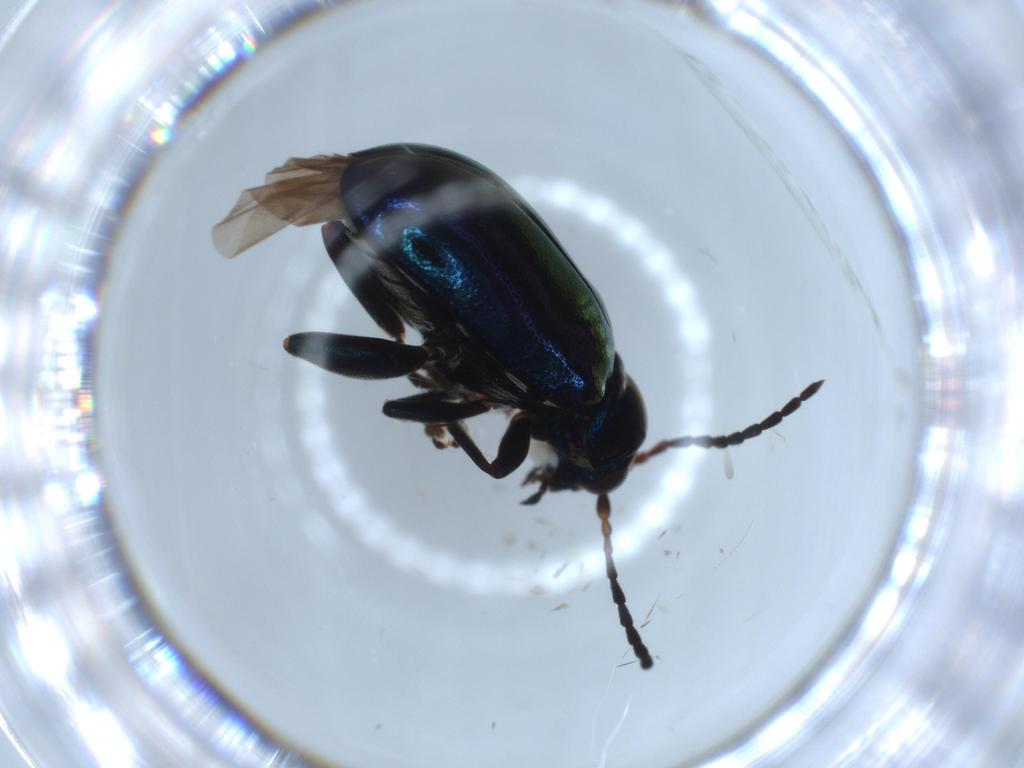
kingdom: Animalia
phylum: Arthropoda
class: Insecta
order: Coleoptera
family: Chrysomelidae
